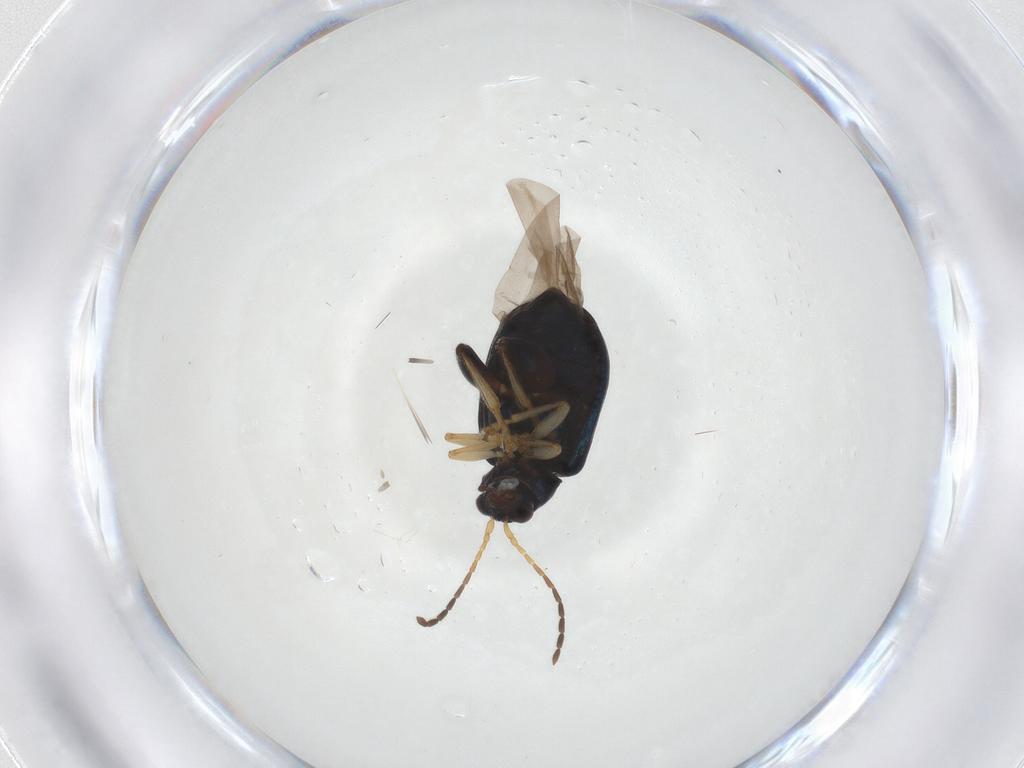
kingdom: Animalia
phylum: Arthropoda
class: Insecta
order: Coleoptera
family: Chrysomelidae
